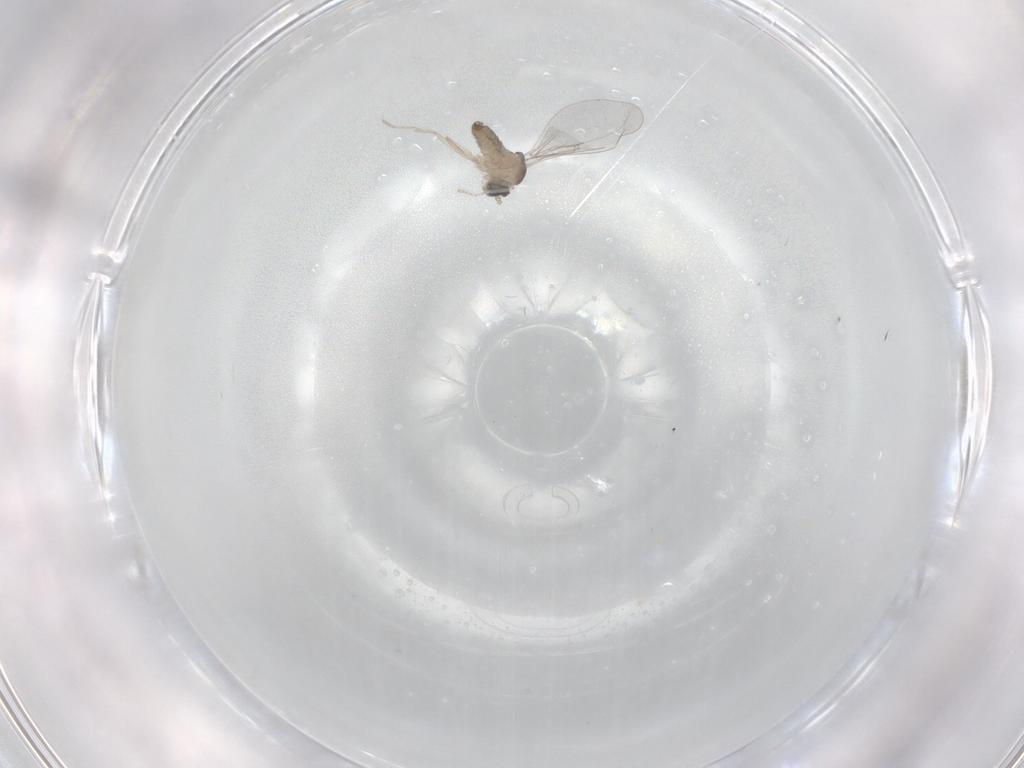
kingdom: Animalia
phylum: Arthropoda
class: Insecta
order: Diptera
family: Cecidomyiidae
